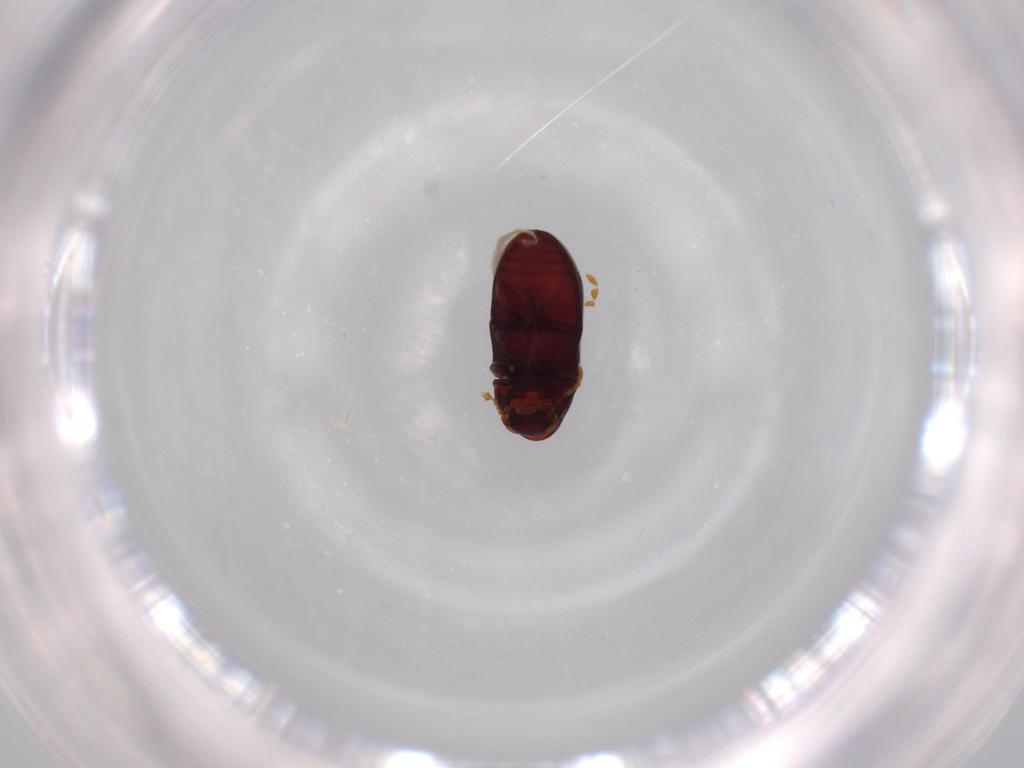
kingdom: Animalia
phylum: Arthropoda
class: Insecta
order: Coleoptera
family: Ptinidae
